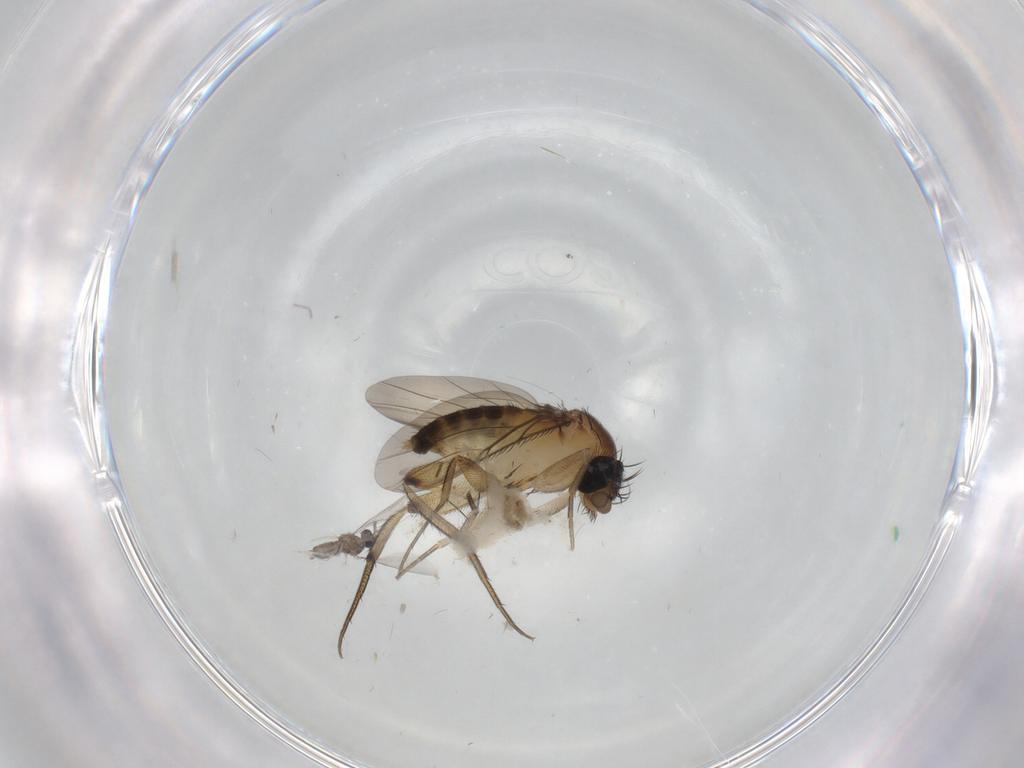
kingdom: Animalia
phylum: Arthropoda
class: Insecta
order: Diptera
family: Phoridae
